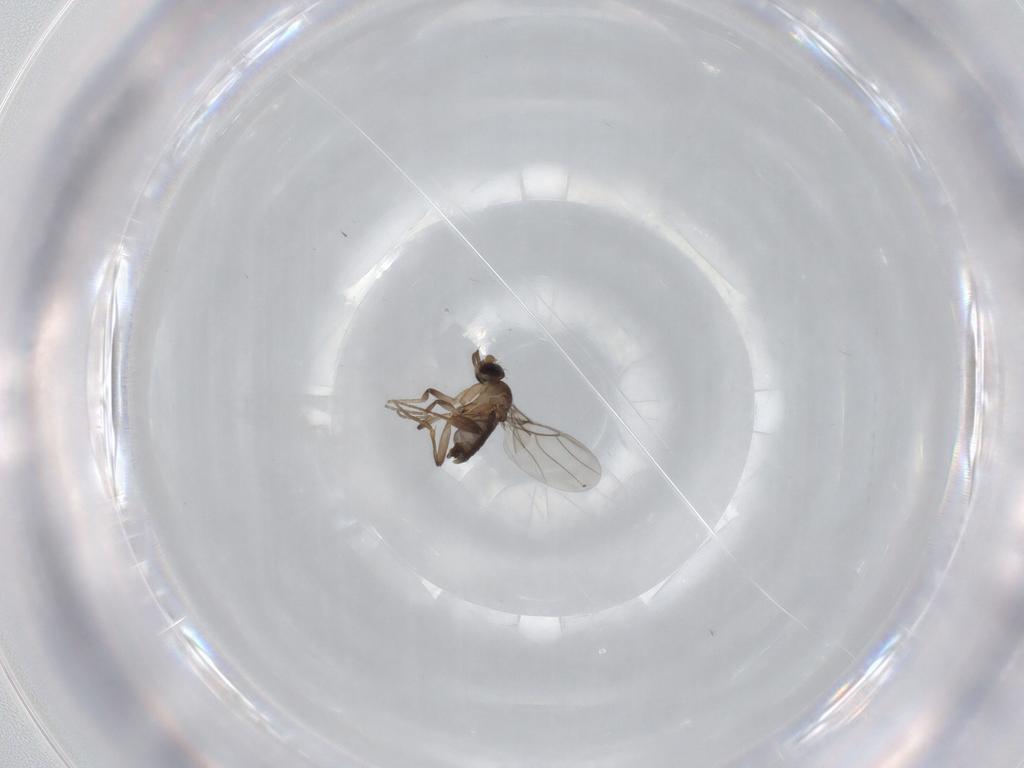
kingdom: Animalia
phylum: Arthropoda
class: Insecta
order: Diptera
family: Phoridae
